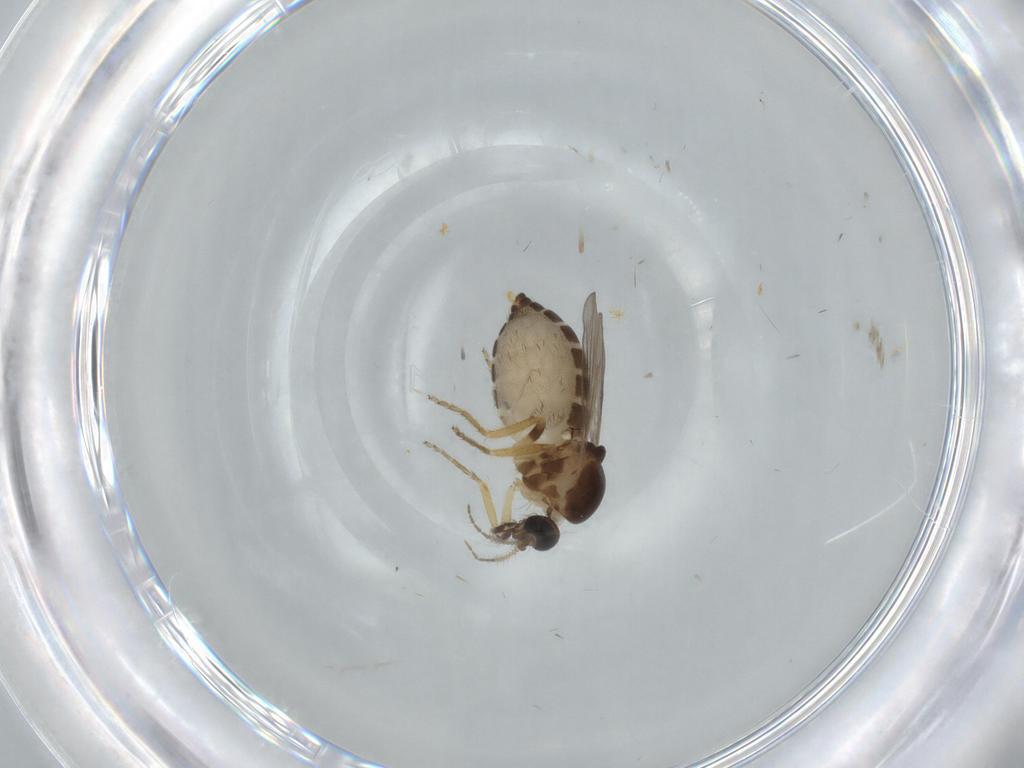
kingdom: Animalia
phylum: Arthropoda
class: Insecta
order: Diptera
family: Ceratopogonidae
